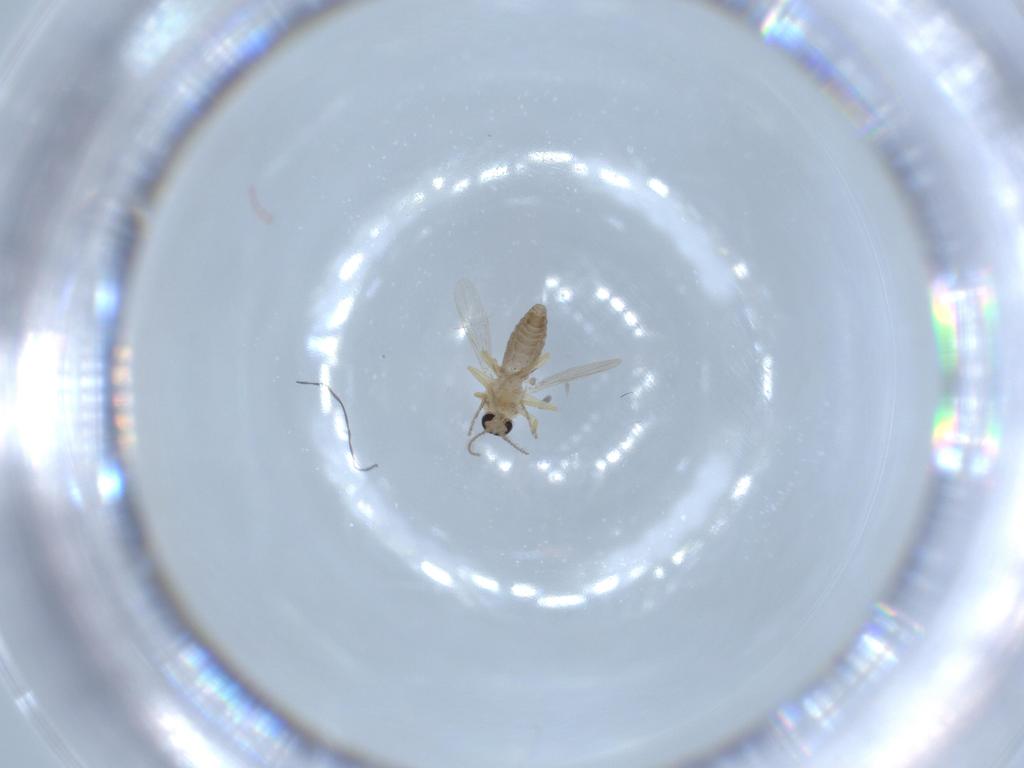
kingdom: Animalia
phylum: Arthropoda
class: Insecta
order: Diptera
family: Ceratopogonidae
